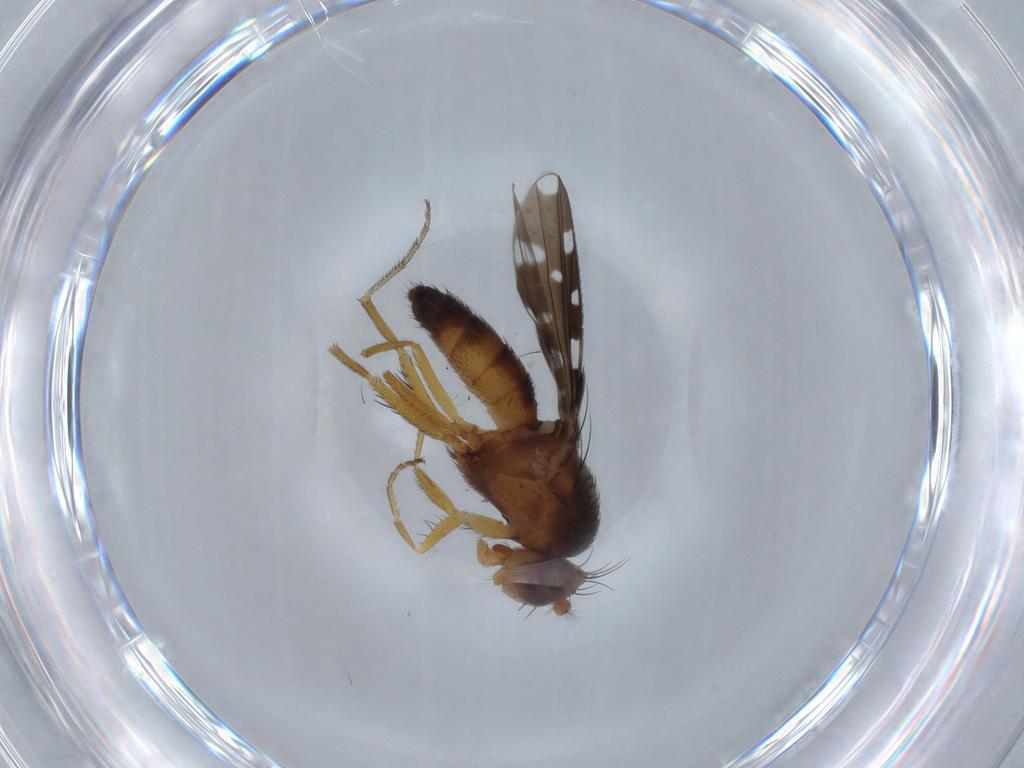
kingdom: Animalia
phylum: Arthropoda
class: Insecta
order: Diptera
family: Ephydridae
